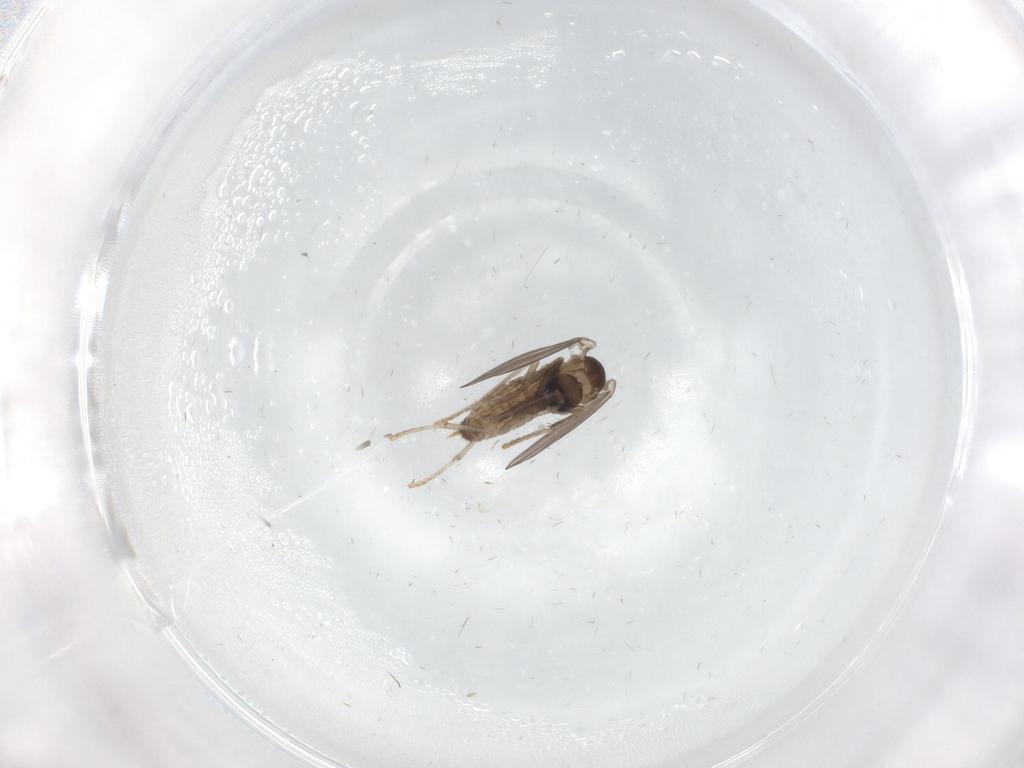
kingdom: Animalia
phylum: Arthropoda
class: Insecta
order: Diptera
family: Psychodidae
